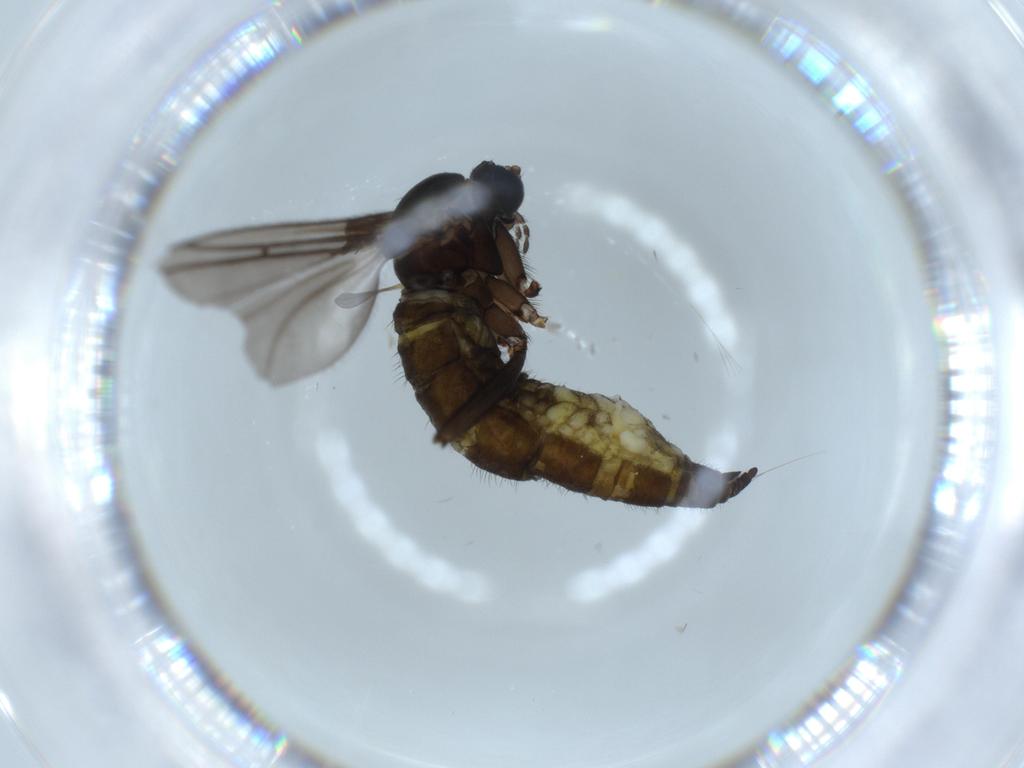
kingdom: Animalia
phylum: Arthropoda
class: Insecta
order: Diptera
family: Sciaridae
